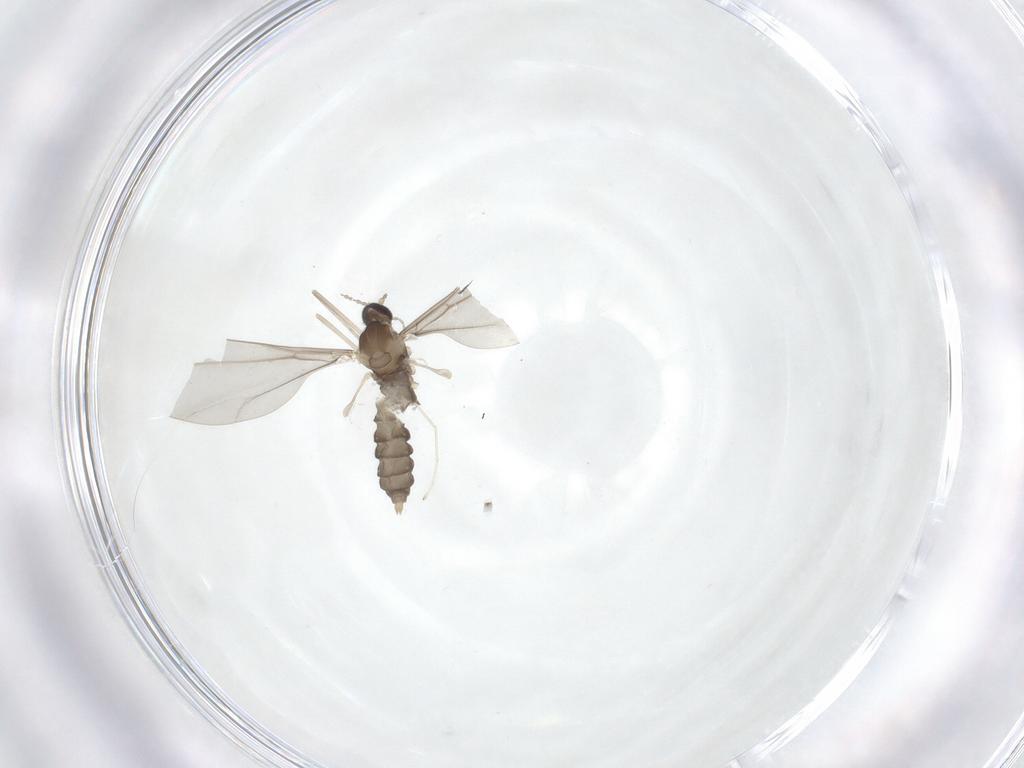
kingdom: Animalia
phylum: Arthropoda
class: Insecta
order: Diptera
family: Cecidomyiidae
